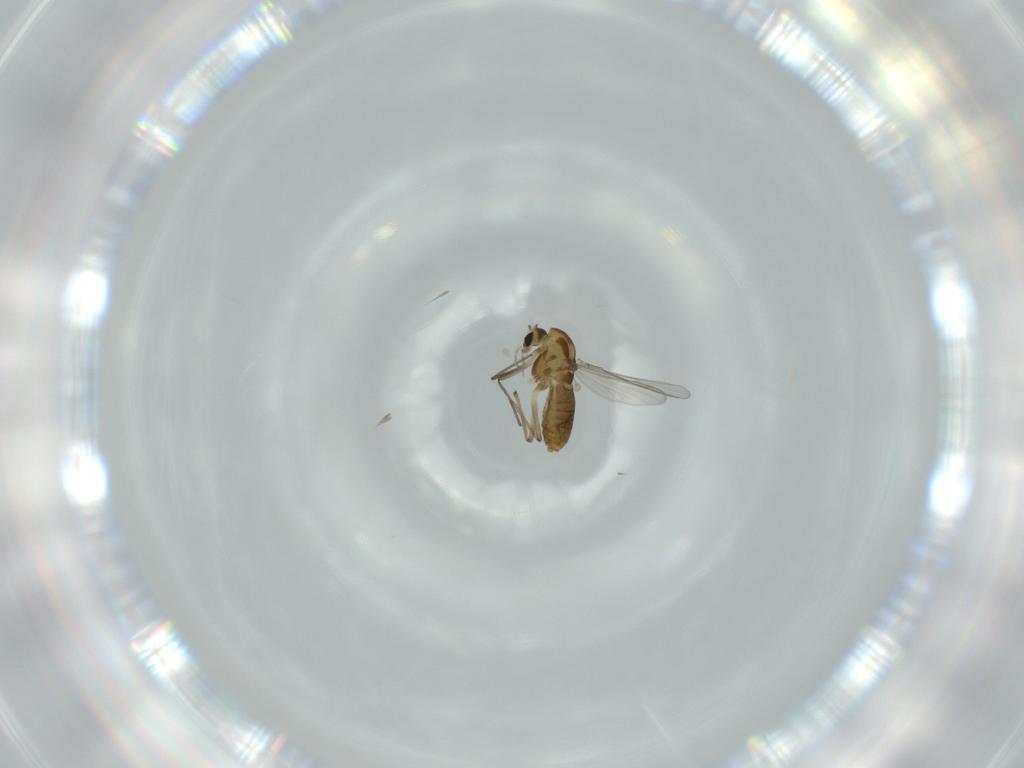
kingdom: Animalia
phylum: Arthropoda
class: Insecta
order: Diptera
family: Chironomidae
